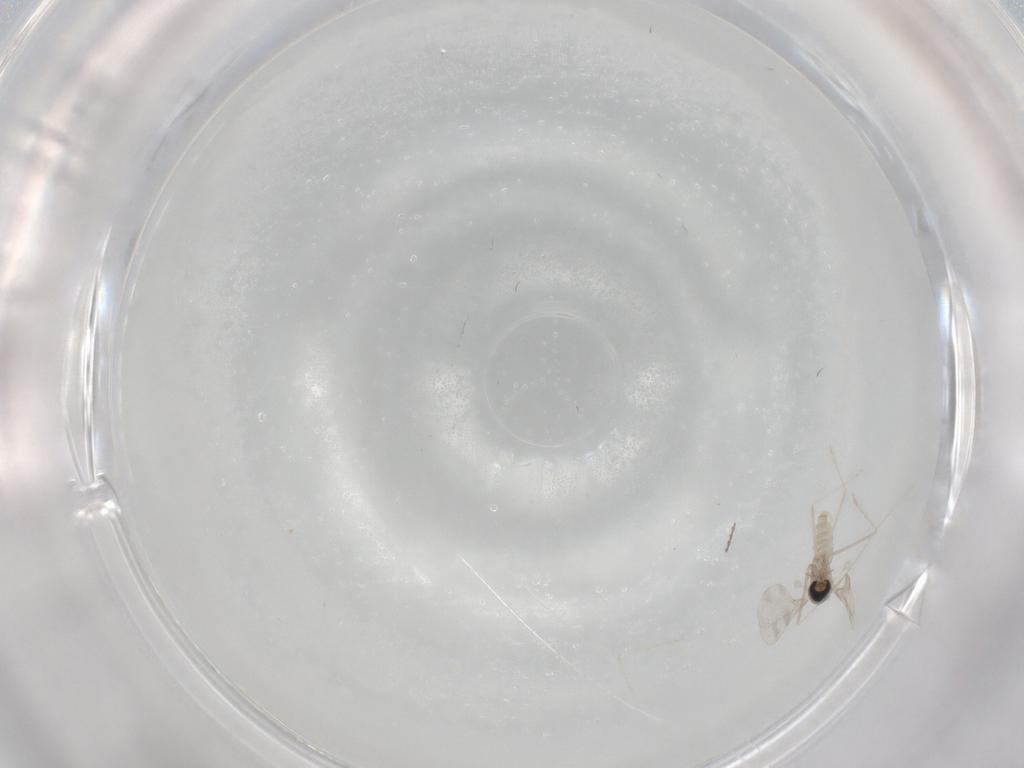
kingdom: Animalia
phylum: Arthropoda
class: Insecta
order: Diptera
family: Cecidomyiidae
